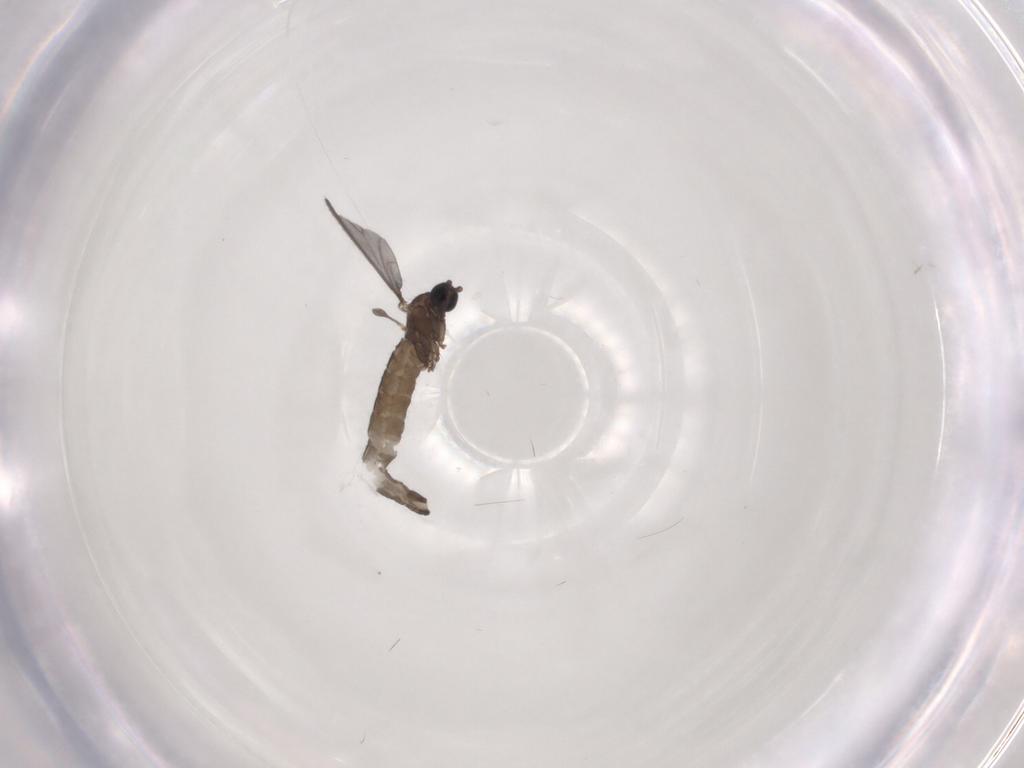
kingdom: Animalia
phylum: Arthropoda
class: Insecta
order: Diptera
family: Sciaridae
